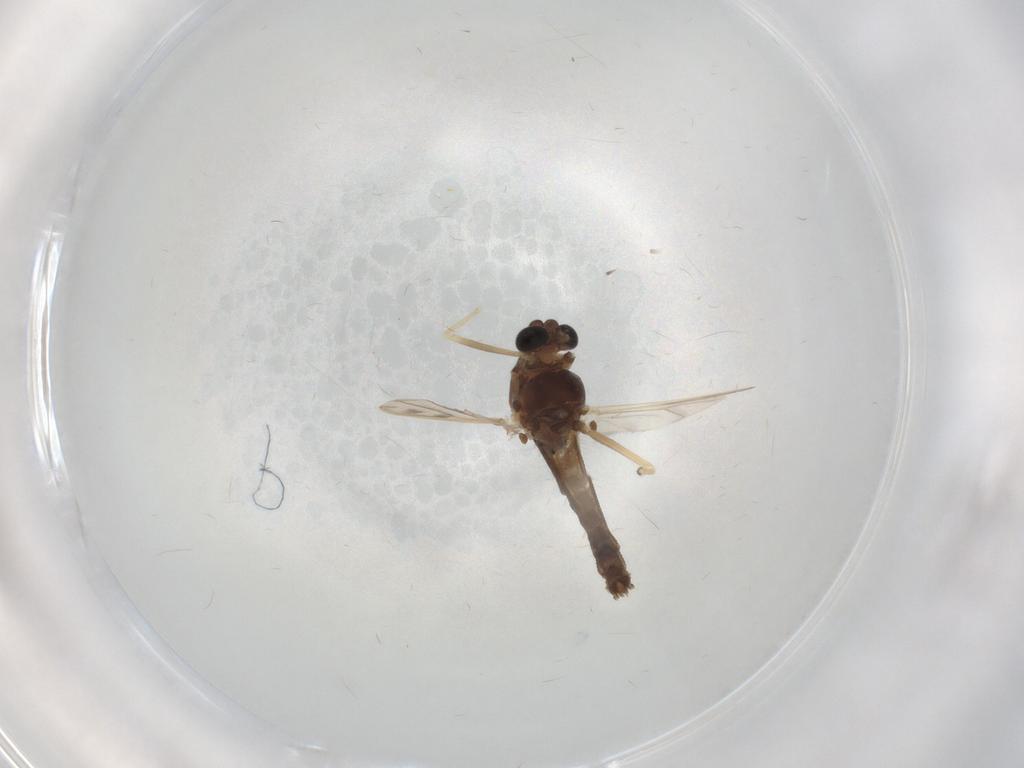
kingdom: Animalia
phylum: Arthropoda
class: Insecta
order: Diptera
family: Chironomidae
